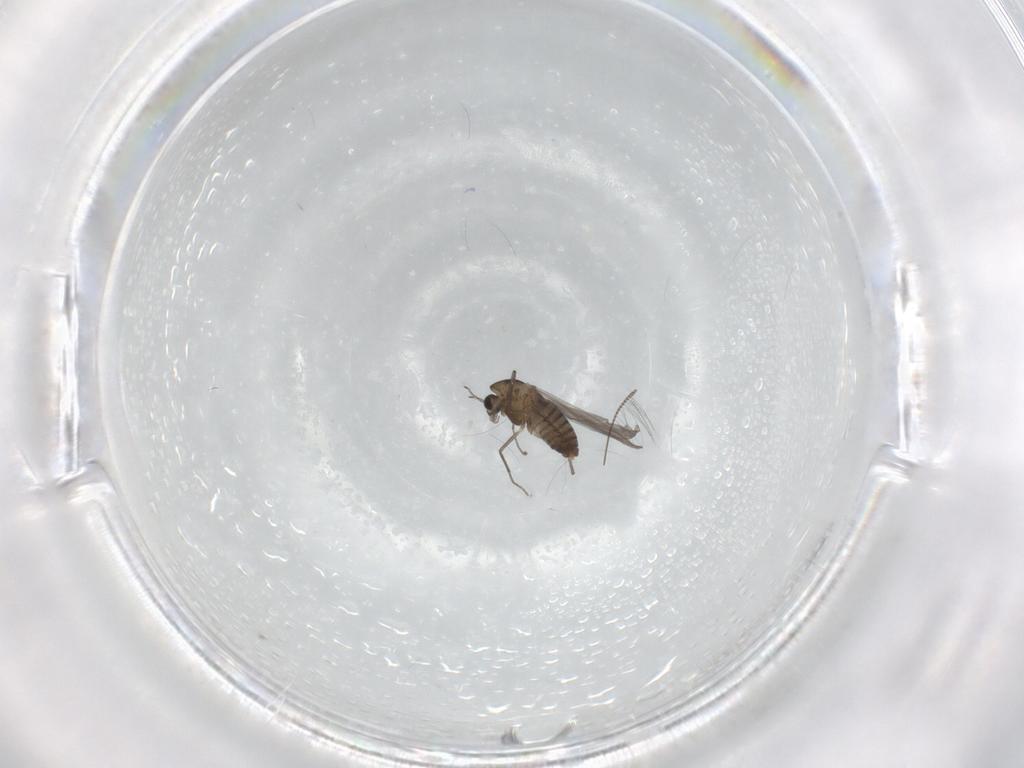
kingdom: Animalia
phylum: Arthropoda
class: Insecta
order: Diptera
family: Chironomidae
